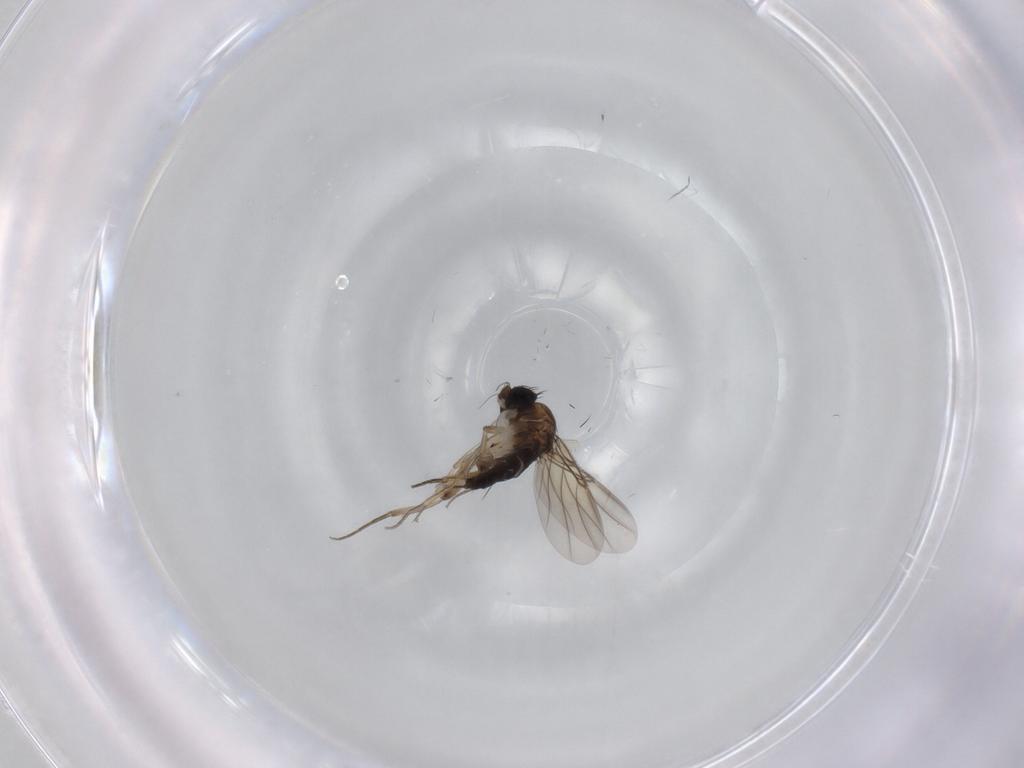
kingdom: Animalia
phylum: Arthropoda
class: Insecta
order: Diptera
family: Phoridae
